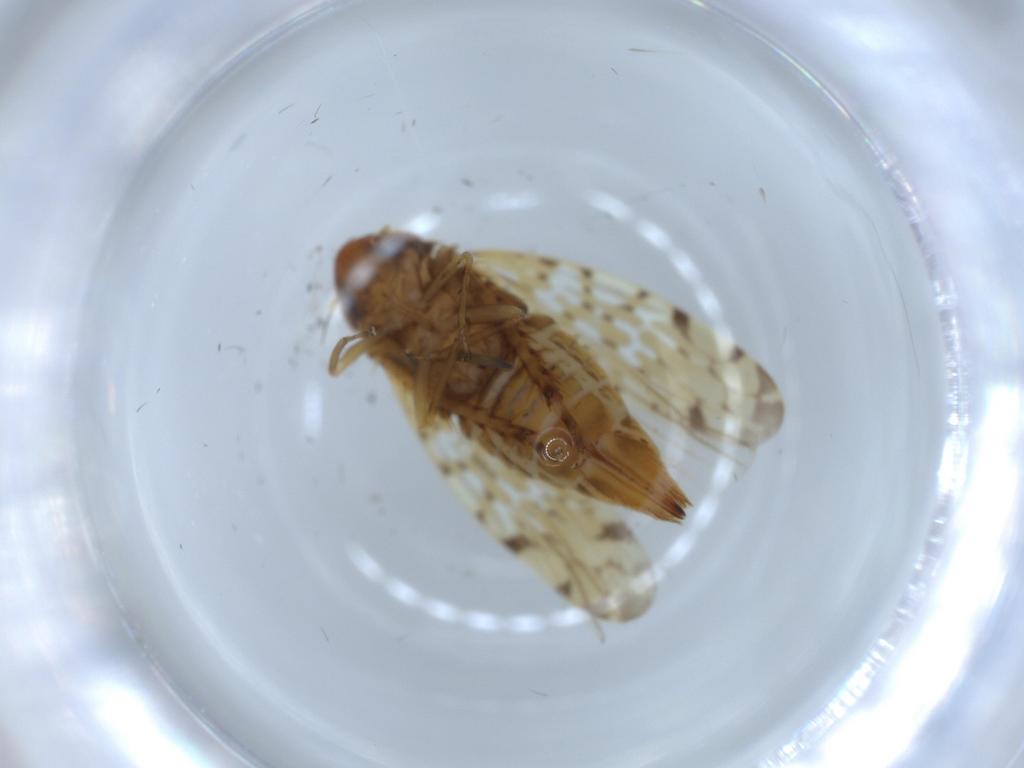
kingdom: Animalia
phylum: Arthropoda
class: Insecta
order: Hemiptera
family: Cicadellidae
